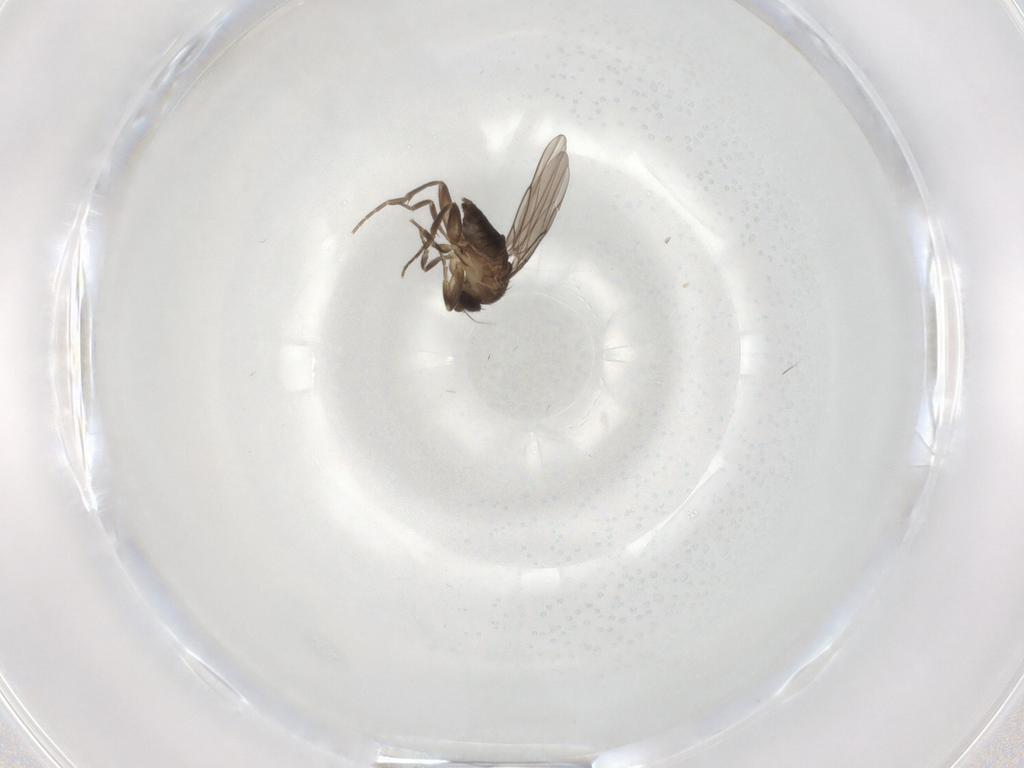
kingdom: Animalia
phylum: Arthropoda
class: Insecta
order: Diptera
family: Phoridae
